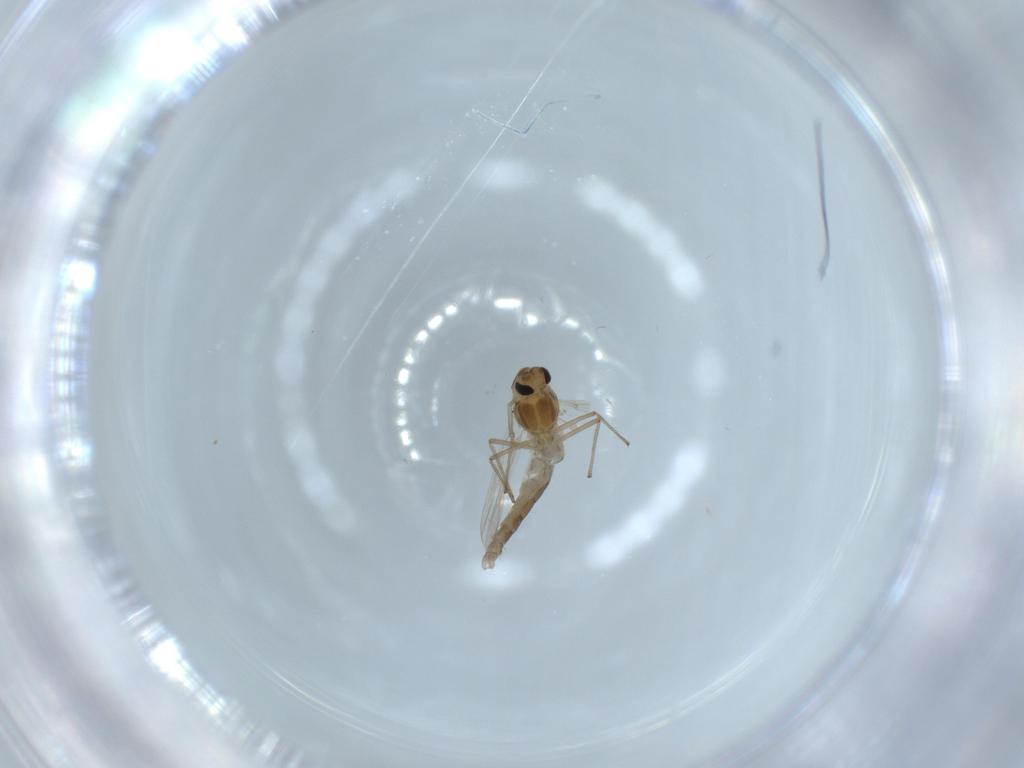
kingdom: Animalia
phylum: Arthropoda
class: Insecta
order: Diptera
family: Chironomidae
